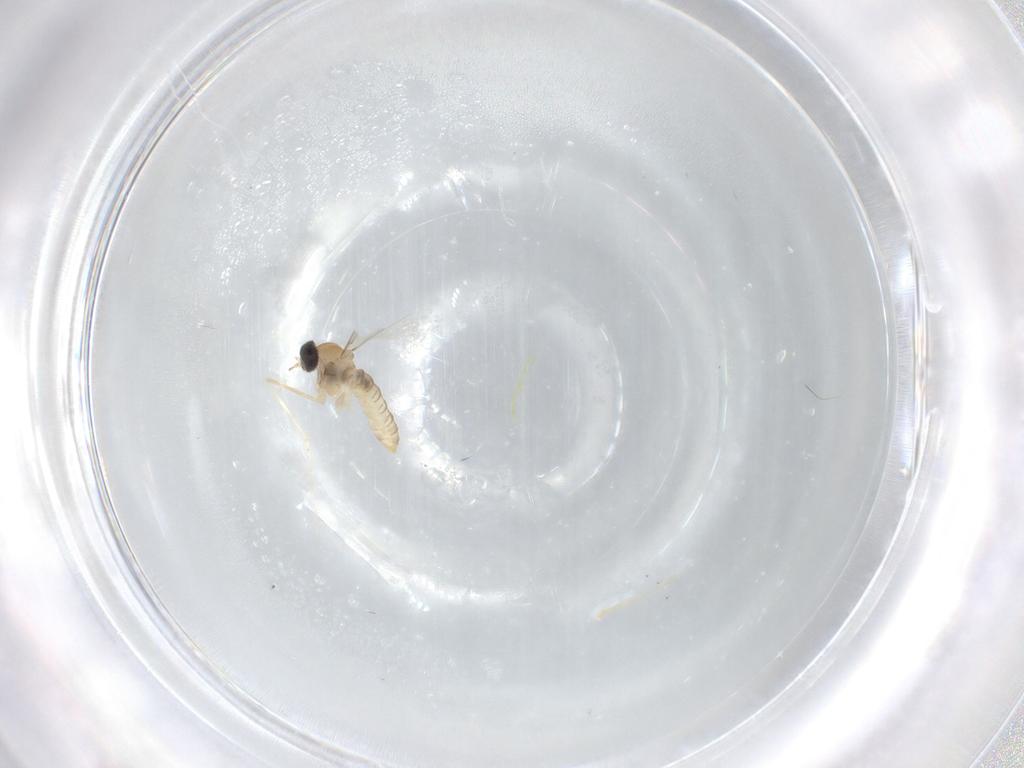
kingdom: Animalia
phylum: Arthropoda
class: Insecta
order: Diptera
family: Cecidomyiidae
